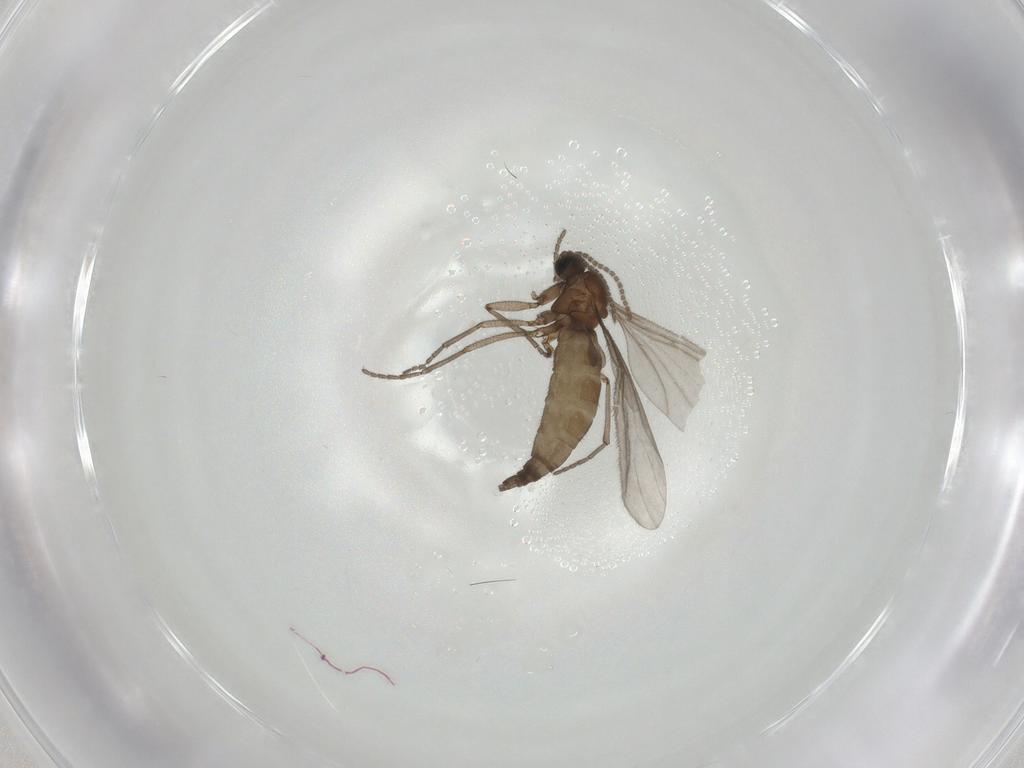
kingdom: Animalia
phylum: Arthropoda
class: Insecta
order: Diptera
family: Sciaridae
